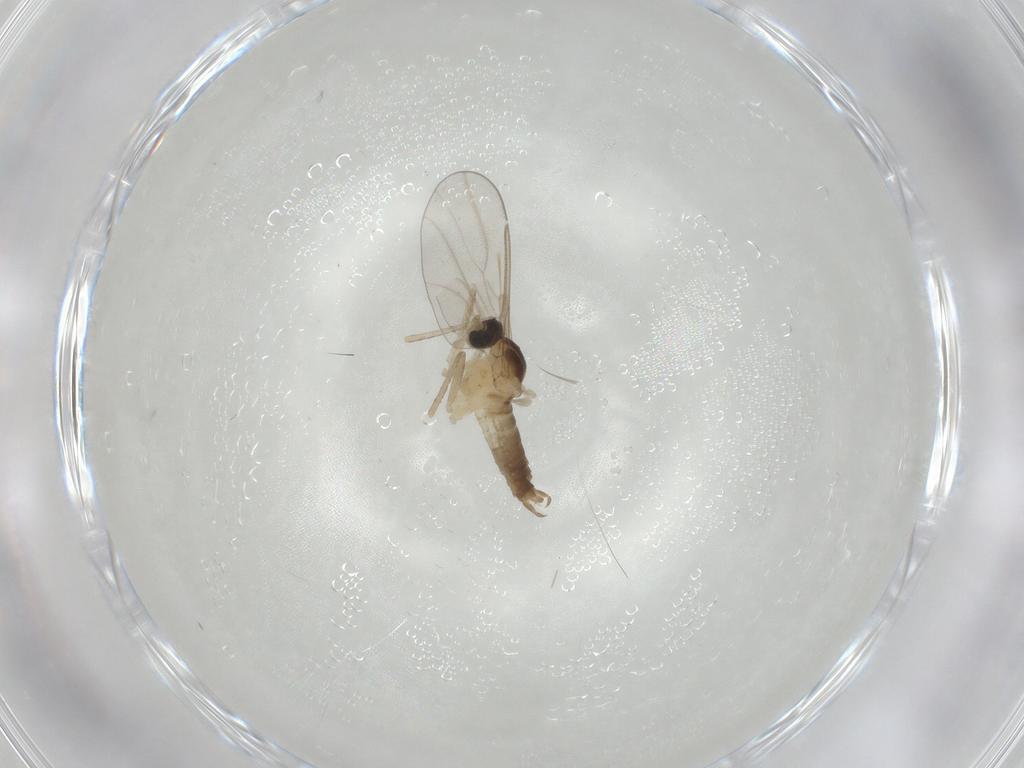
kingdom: Animalia
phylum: Arthropoda
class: Insecta
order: Diptera
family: Cecidomyiidae
